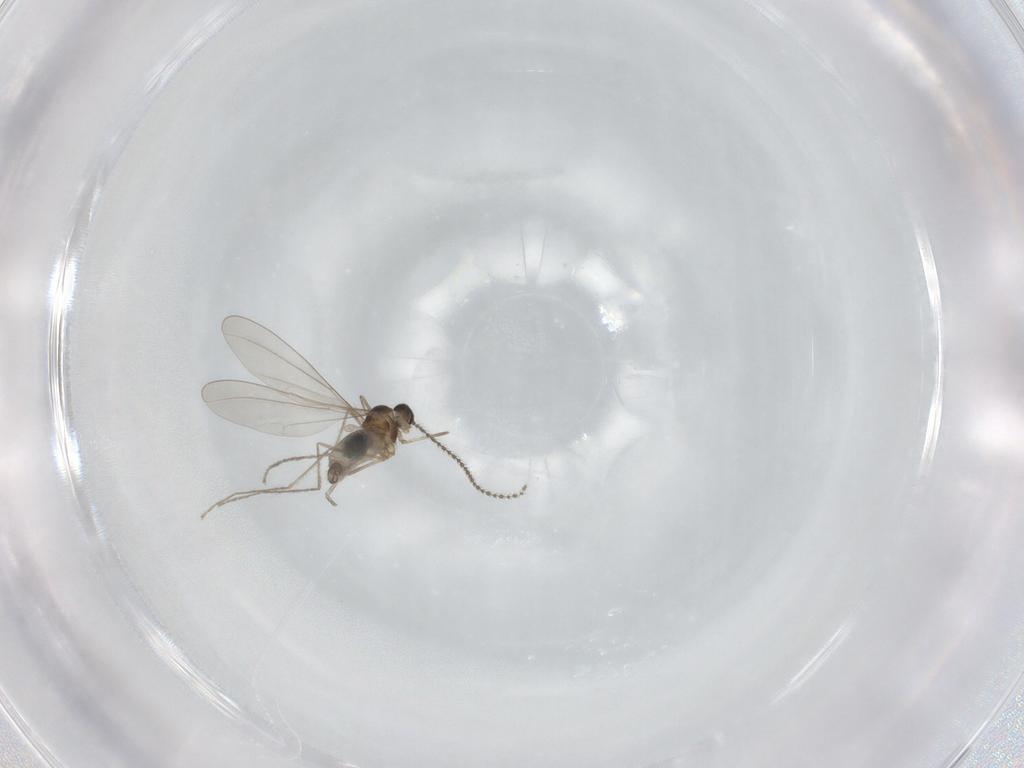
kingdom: Animalia
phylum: Arthropoda
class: Insecta
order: Diptera
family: Cecidomyiidae
